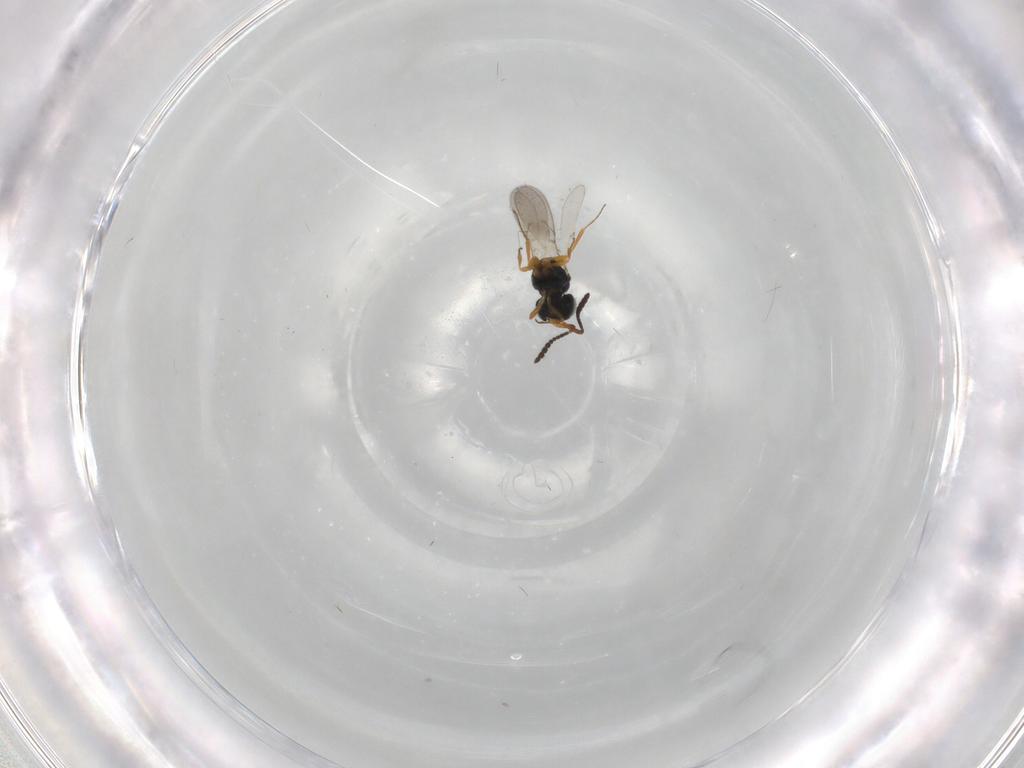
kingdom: Animalia
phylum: Arthropoda
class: Insecta
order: Hymenoptera
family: Scelionidae
